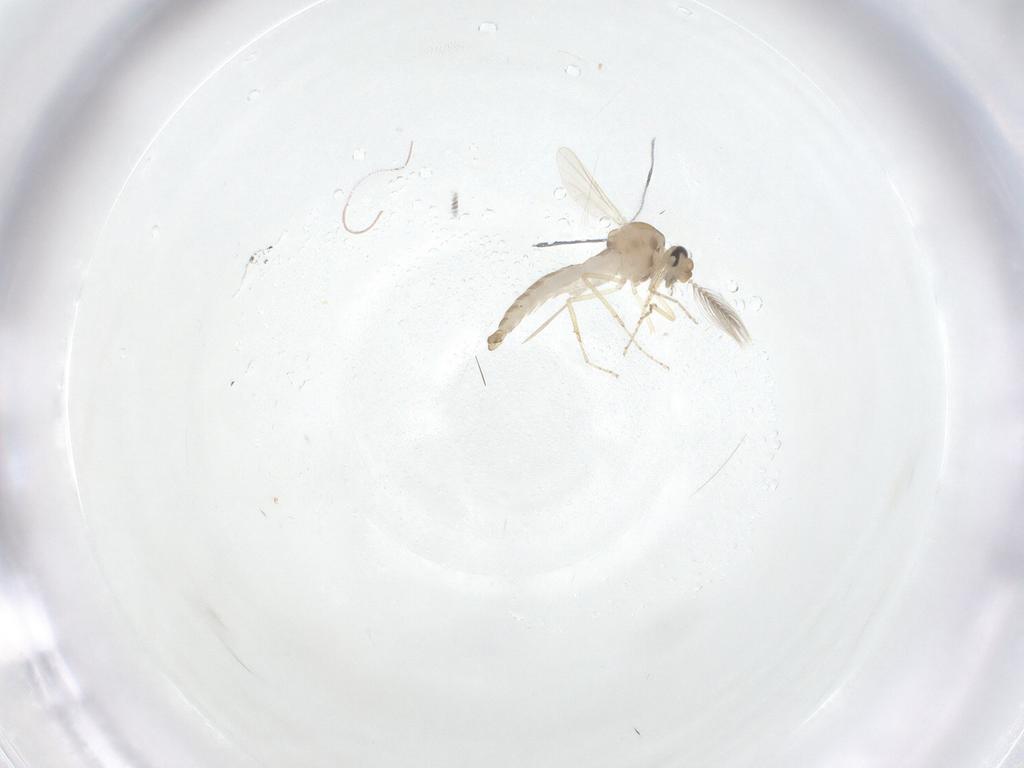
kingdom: Animalia
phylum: Arthropoda
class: Insecta
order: Diptera
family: Ceratopogonidae
